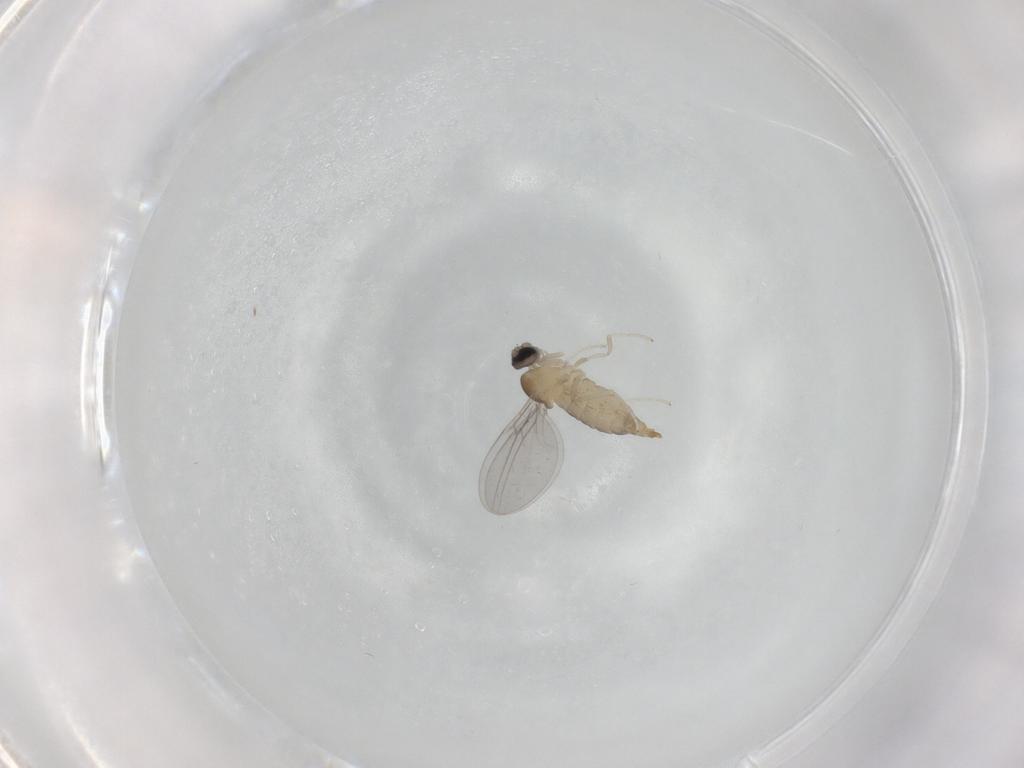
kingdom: Animalia
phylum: Arthropoda
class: Insecta
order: Diptera
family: Cecidomyiidae
